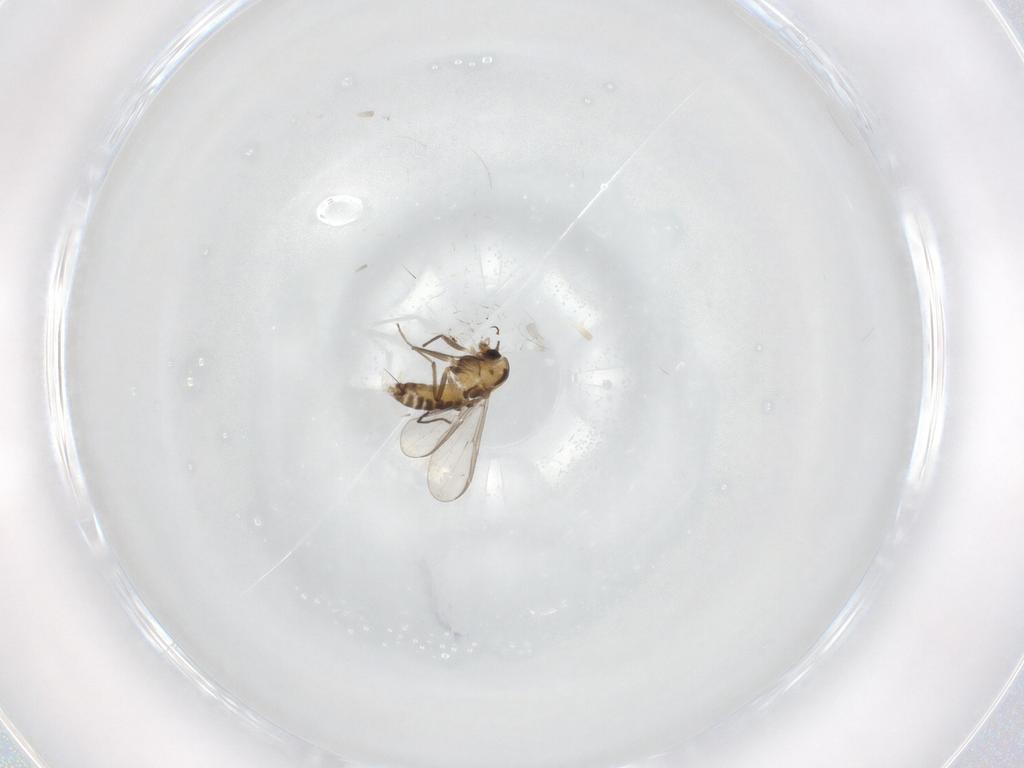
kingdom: Animalia
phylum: Arthropoda
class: Insecta
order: Diptera
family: Chironomidae
